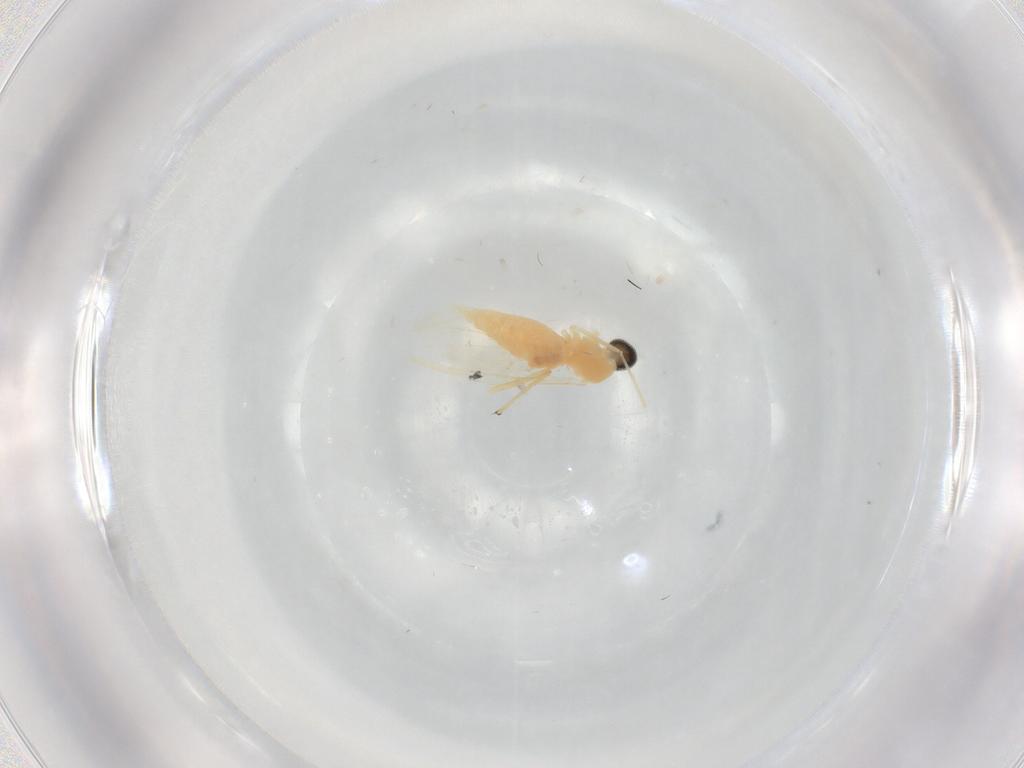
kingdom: Animalia
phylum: Arthropoda
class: Insecta
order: Diptera
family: Cecidomyiidae
